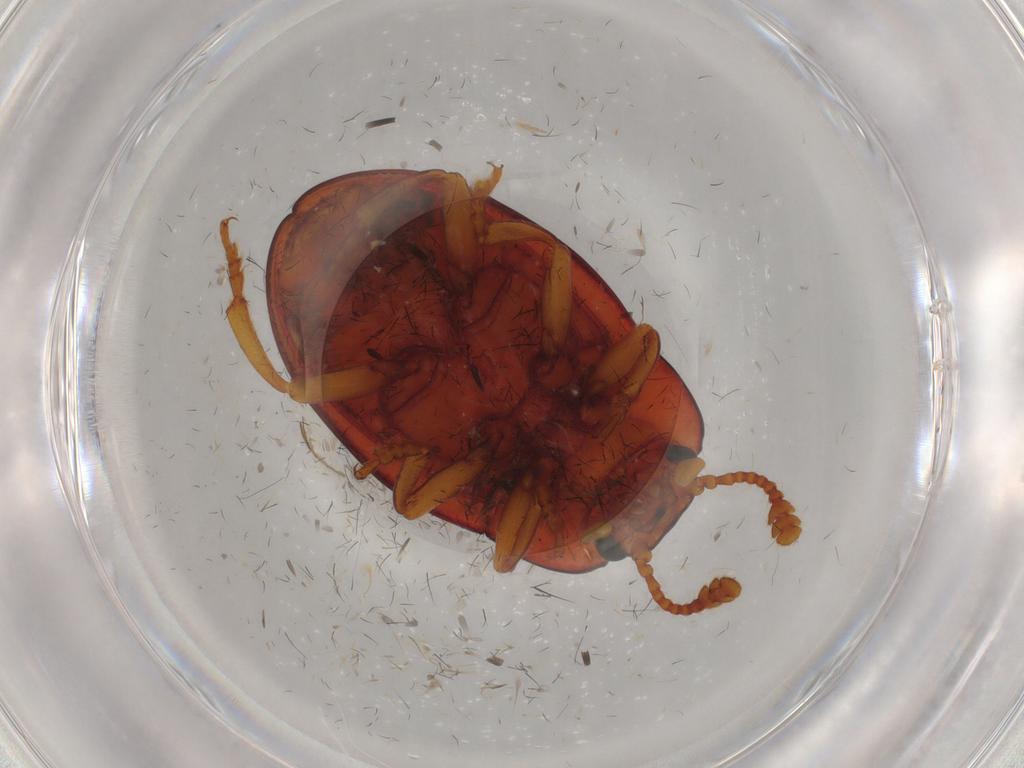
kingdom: Animalia
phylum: Arthropoda
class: Insecta
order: Coleoptera
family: Erotylidae
